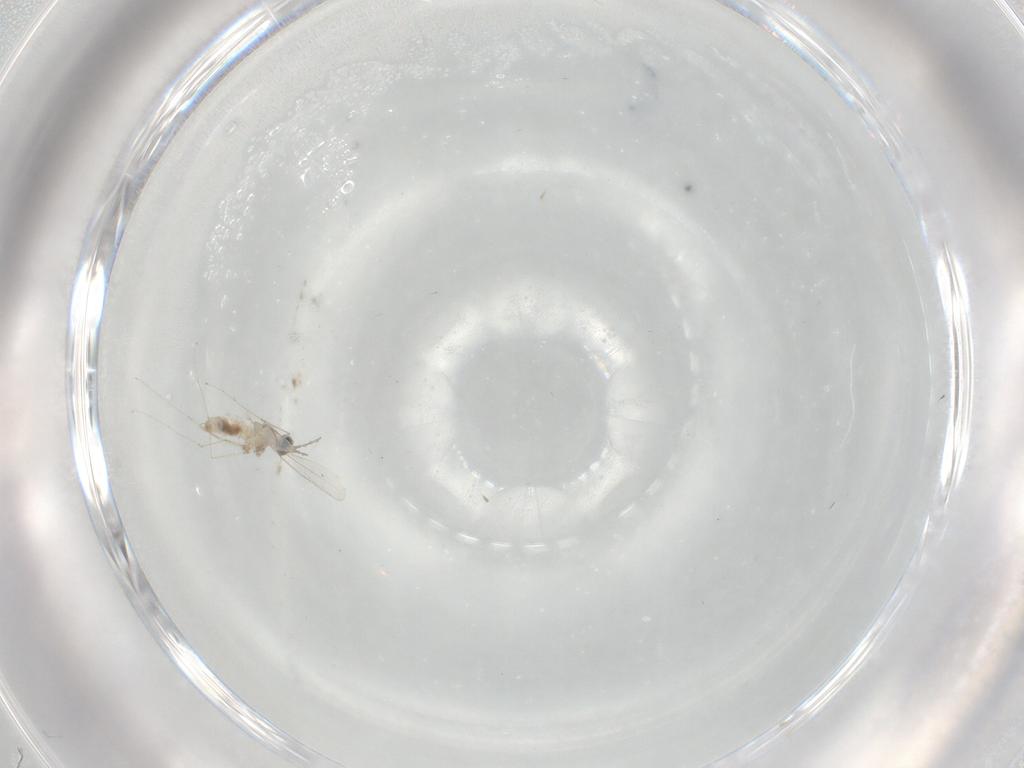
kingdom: Animalia
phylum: Arthropoda
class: Insecta
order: Diptera
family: Cecidomyiidae
